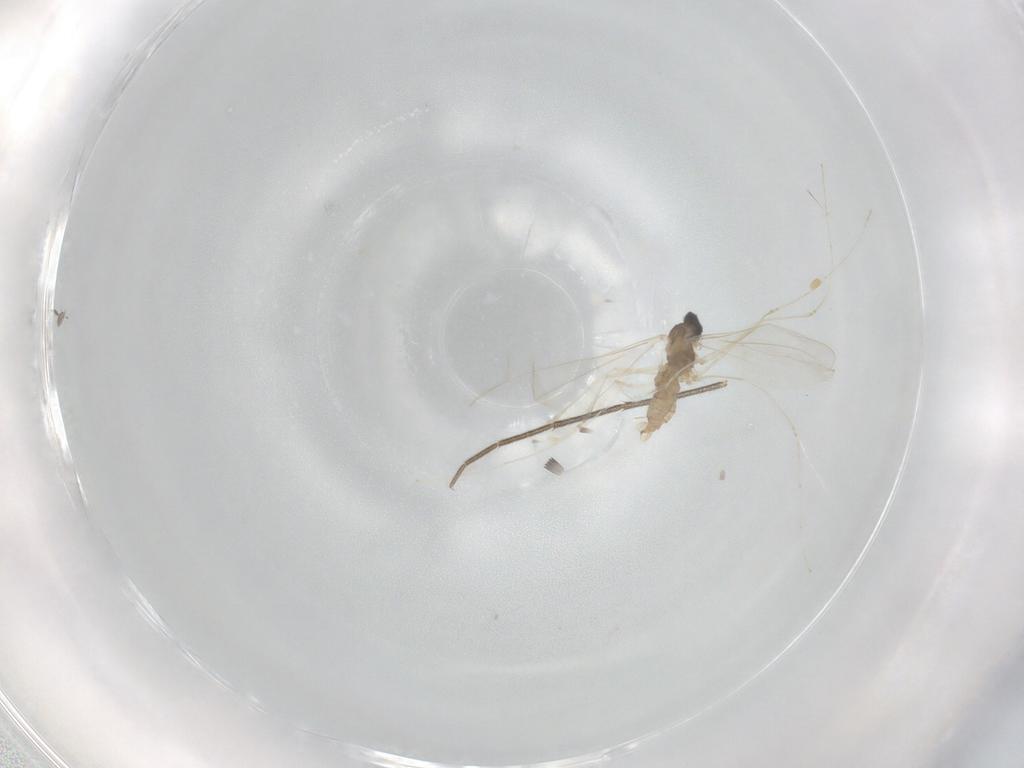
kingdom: Animalia
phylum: Arthropoda
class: Insecta
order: Diptera
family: Cecidomyiidae
